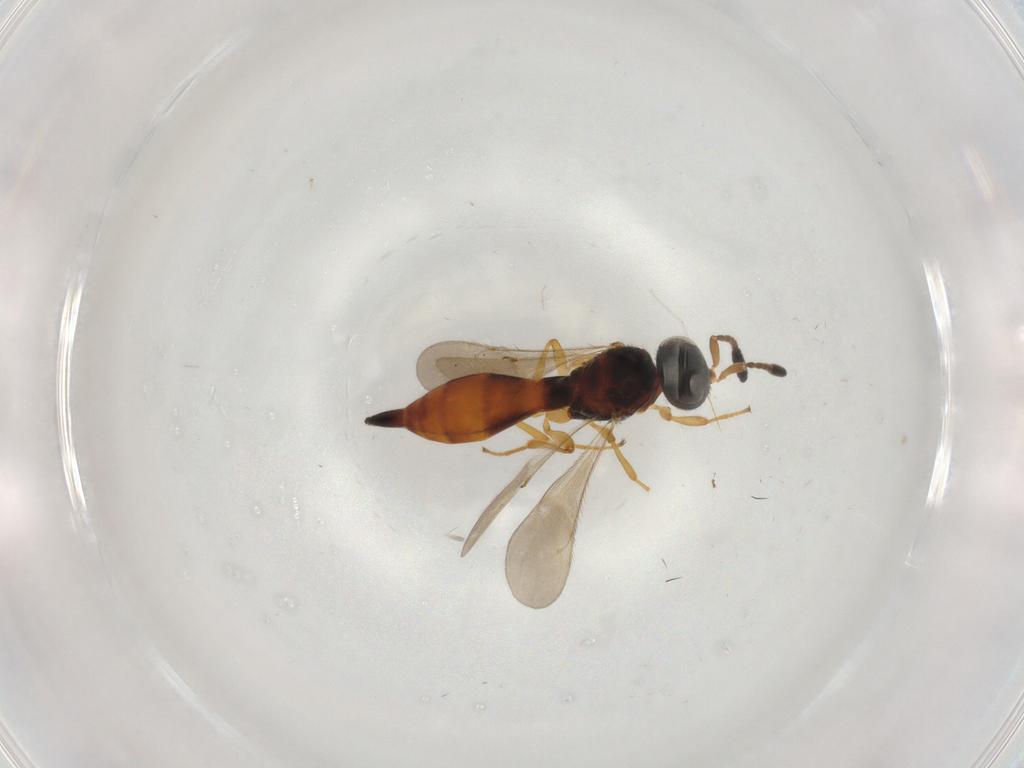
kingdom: Animalia
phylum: Arthropoda
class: Insecta
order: Hymenoptera
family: Scelionidae
